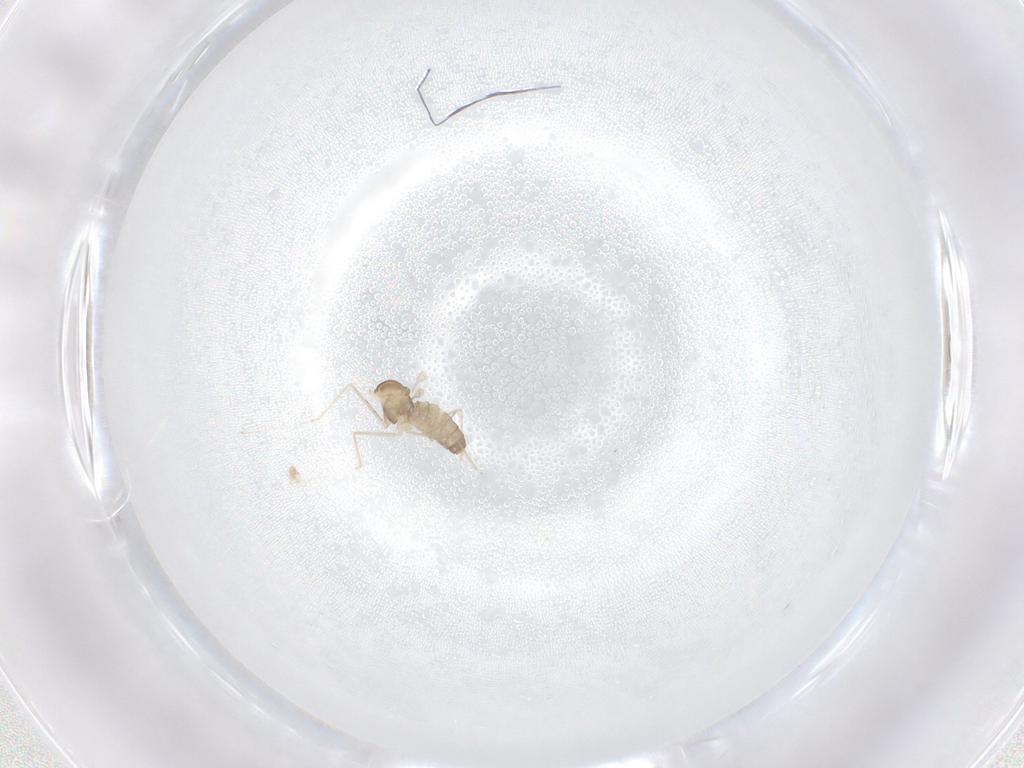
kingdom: Animalia
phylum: Arthropoda
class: Insecta
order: Diptera
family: Cecidomyiidae
